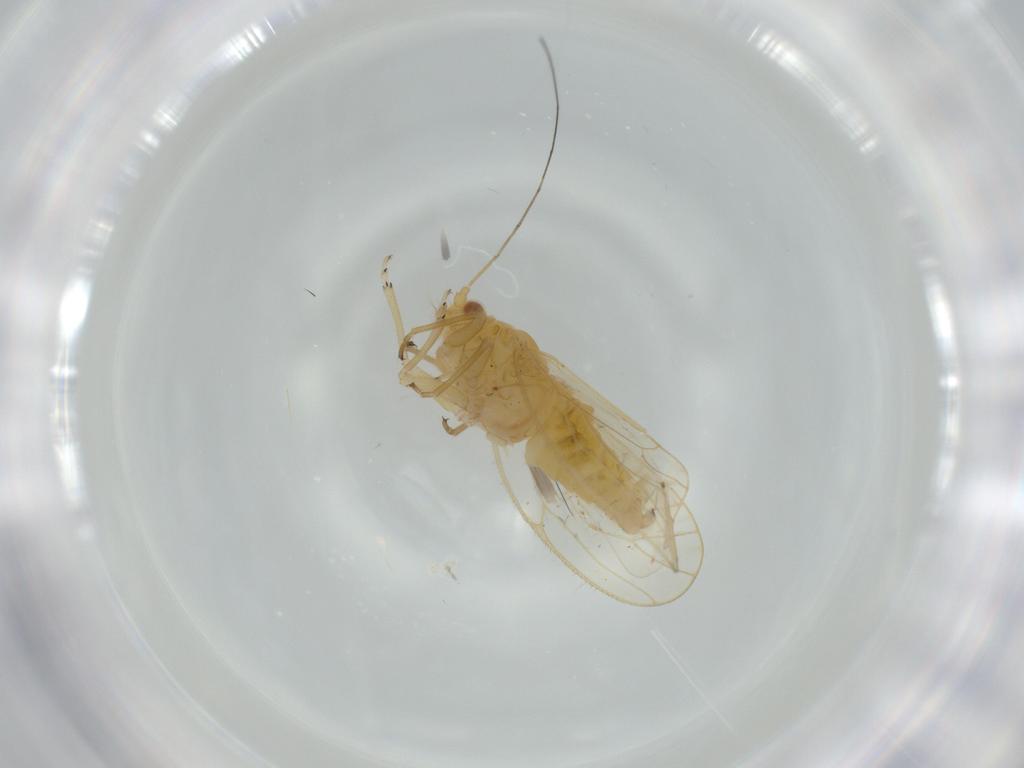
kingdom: Animalia
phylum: Arthropoda
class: Insecta
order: Hemiptera
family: Psyllidae
